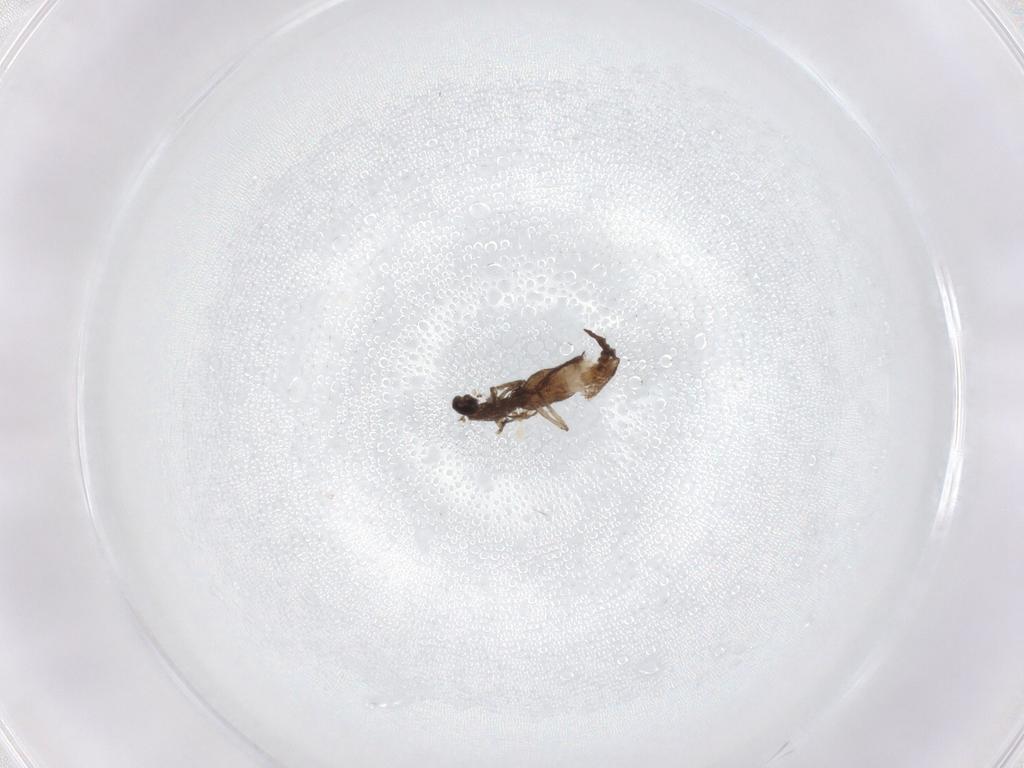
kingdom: Animalia
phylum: Arthropoda
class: Insecta
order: Diptera
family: Cecidomyiidae
